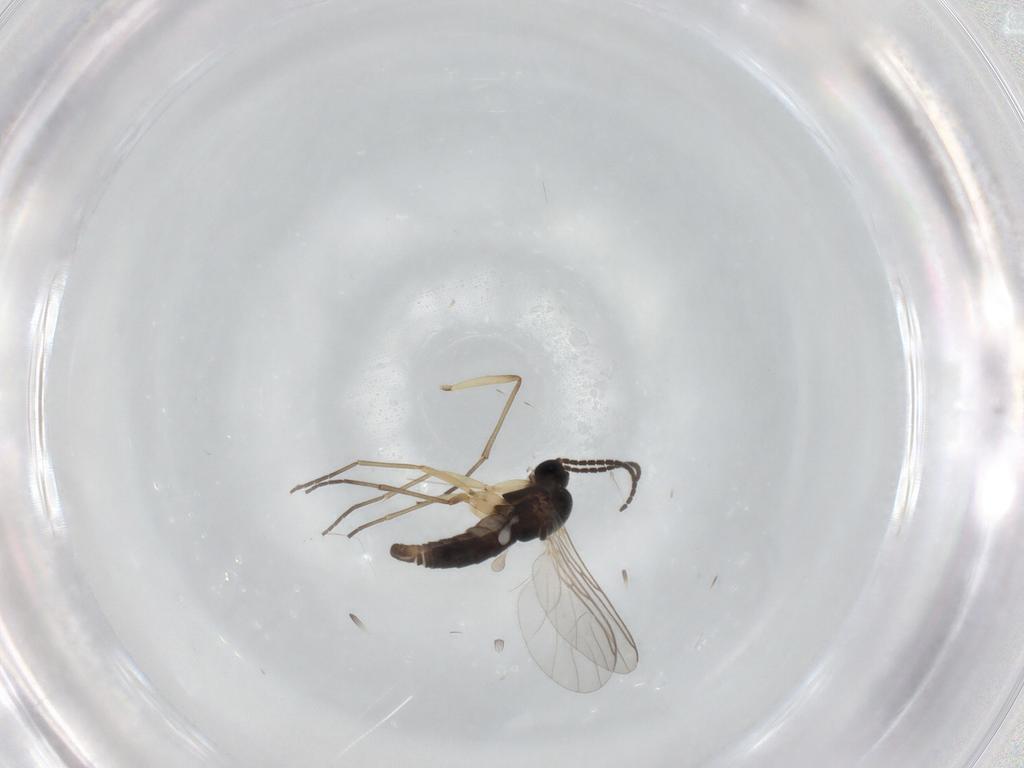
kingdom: Animalia
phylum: Arthropoda
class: Insecta
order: Diptera
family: Sciaridae
